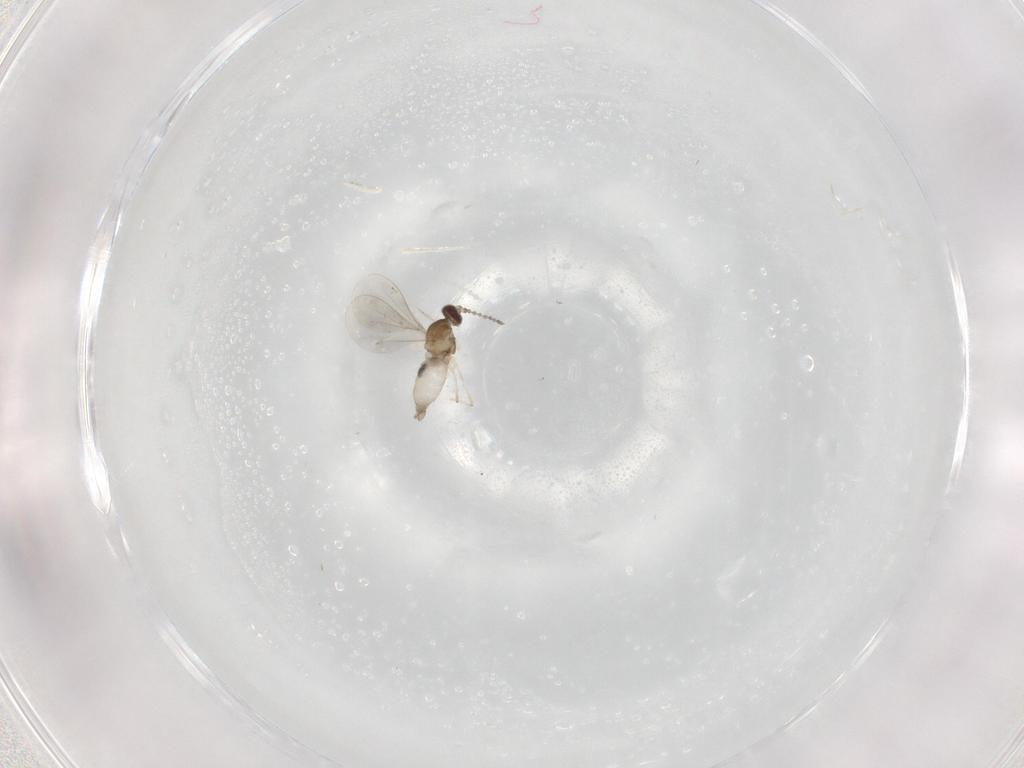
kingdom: Animalia
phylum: Arthropoda
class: Insecta
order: Diptera
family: Cecidomyiidae
